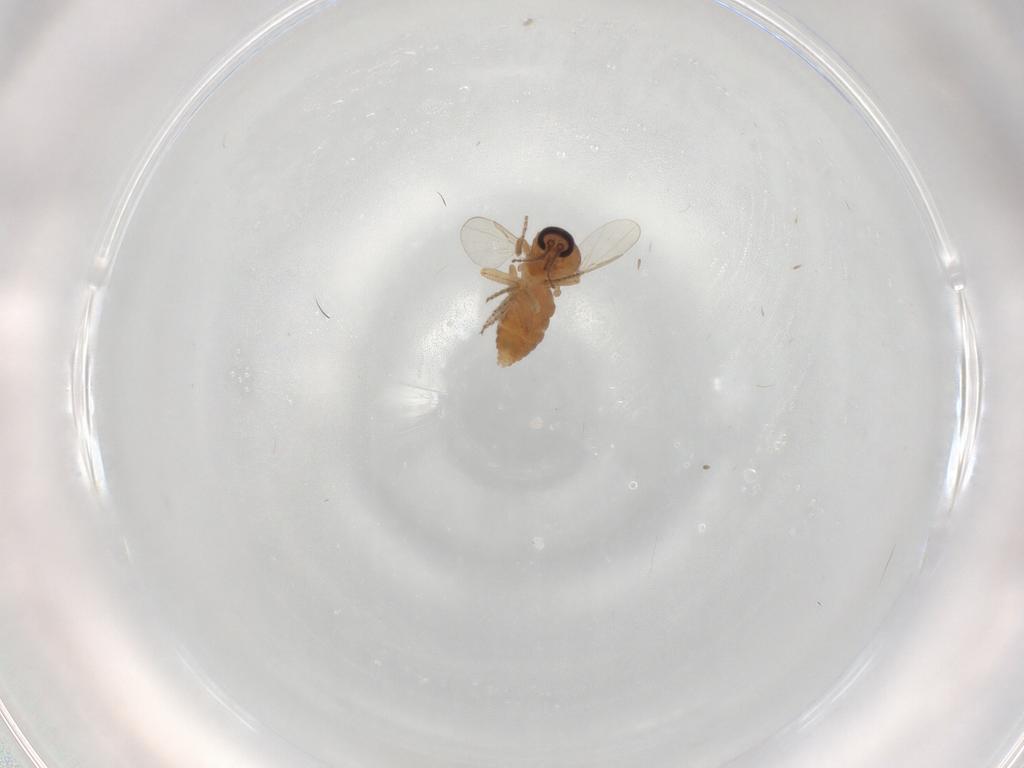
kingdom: Animalia
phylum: Arthropoda
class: Insecta
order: Diptera
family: Ceratopogonidae
